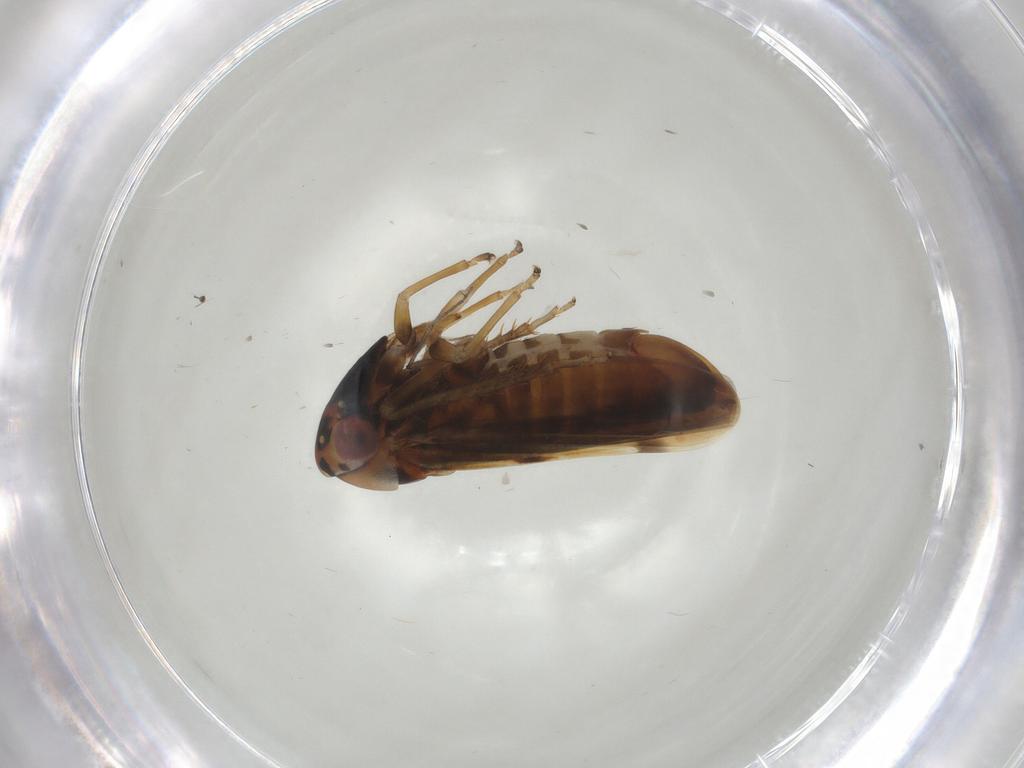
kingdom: Animalia
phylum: Arthropoda
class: Insecta
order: Hemiptera
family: Cicadellidae
